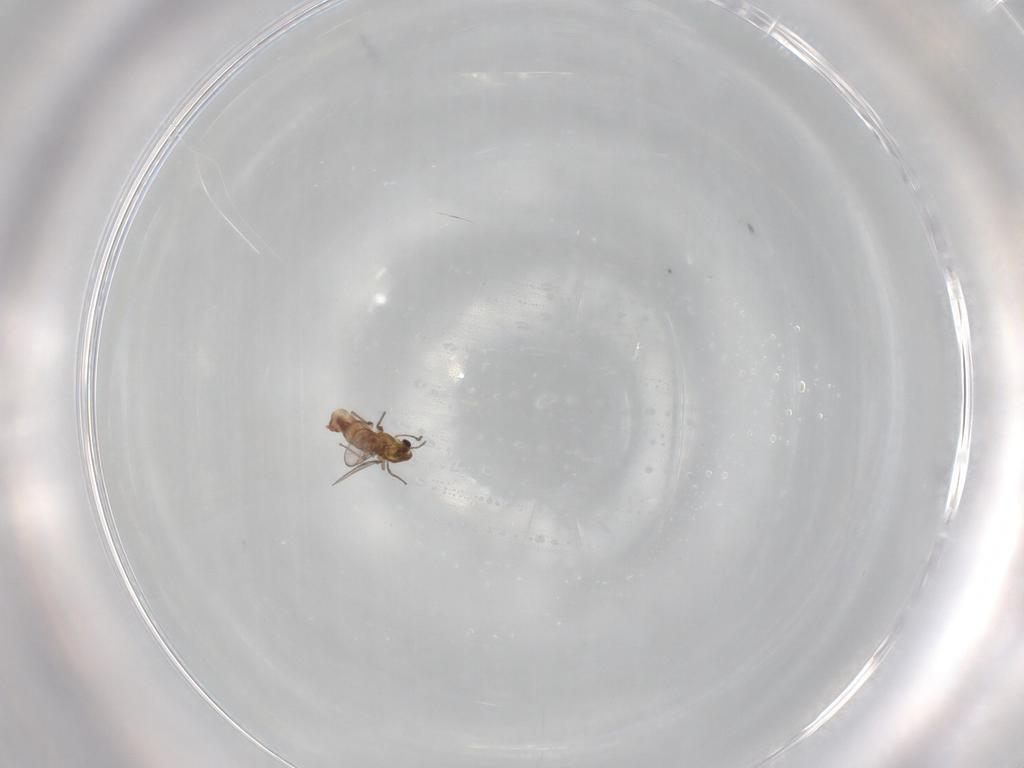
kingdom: Animalia
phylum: Arthropoda
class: Insecta
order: Diptera
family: Chironomidae
